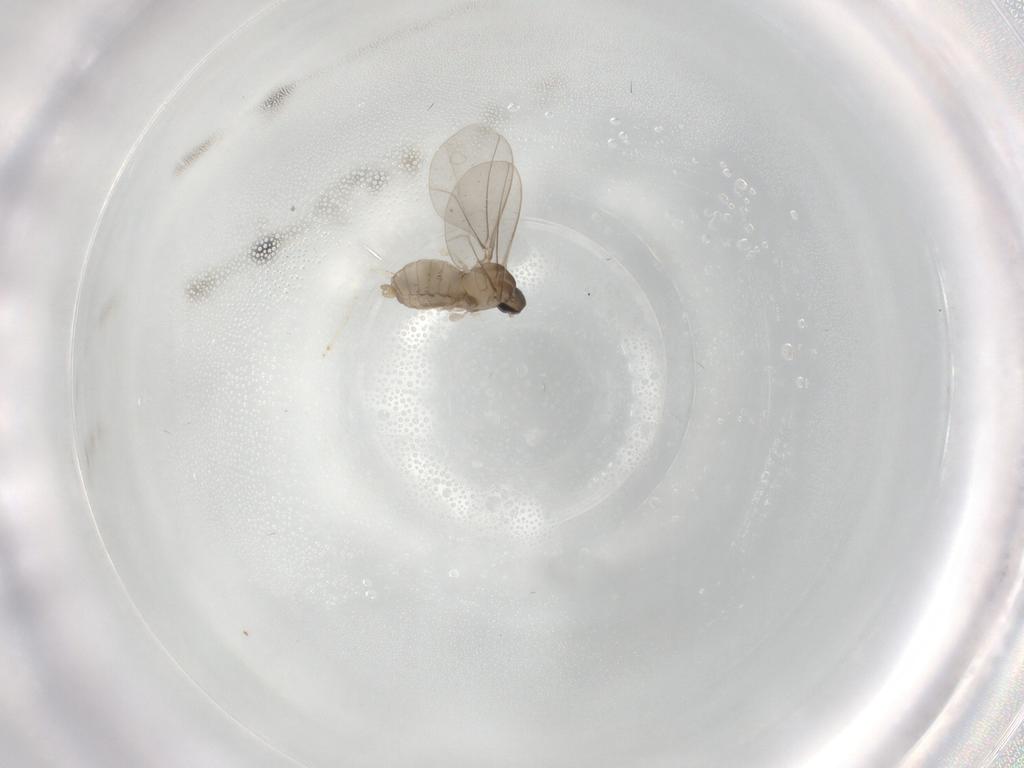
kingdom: Animalia
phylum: Arthropoda
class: Insecta
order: Diptera
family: Cecidomyiidae
